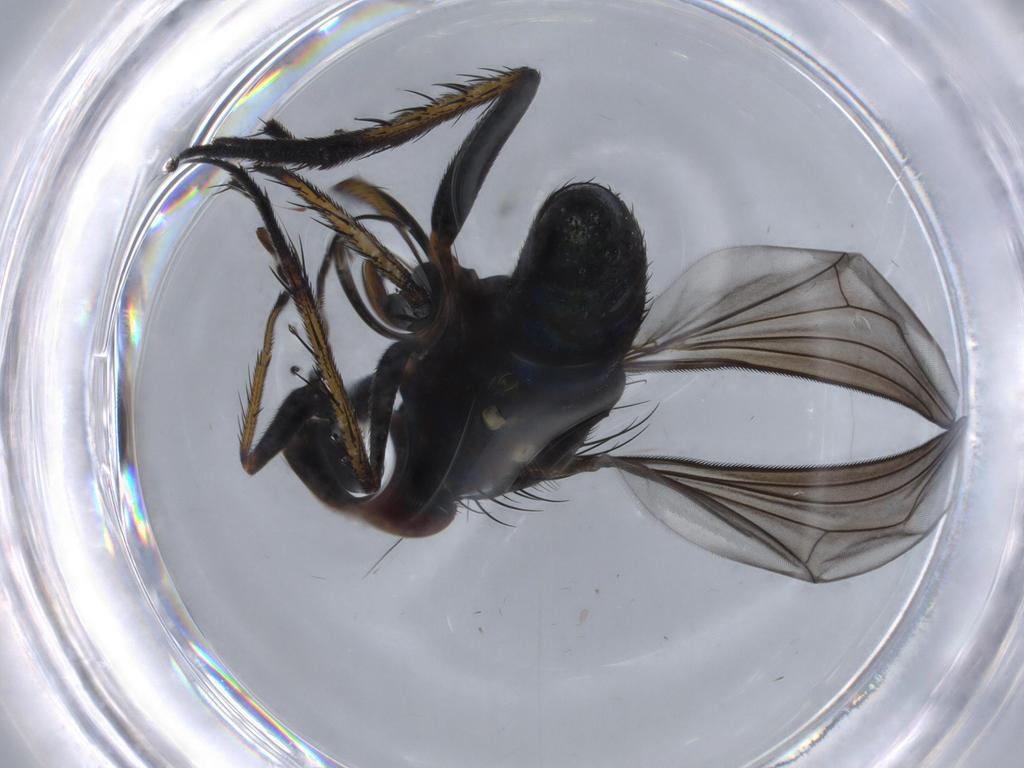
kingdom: Animalia
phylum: Arthropoda
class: Insecta
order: Diptera
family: Dolichopodidae
